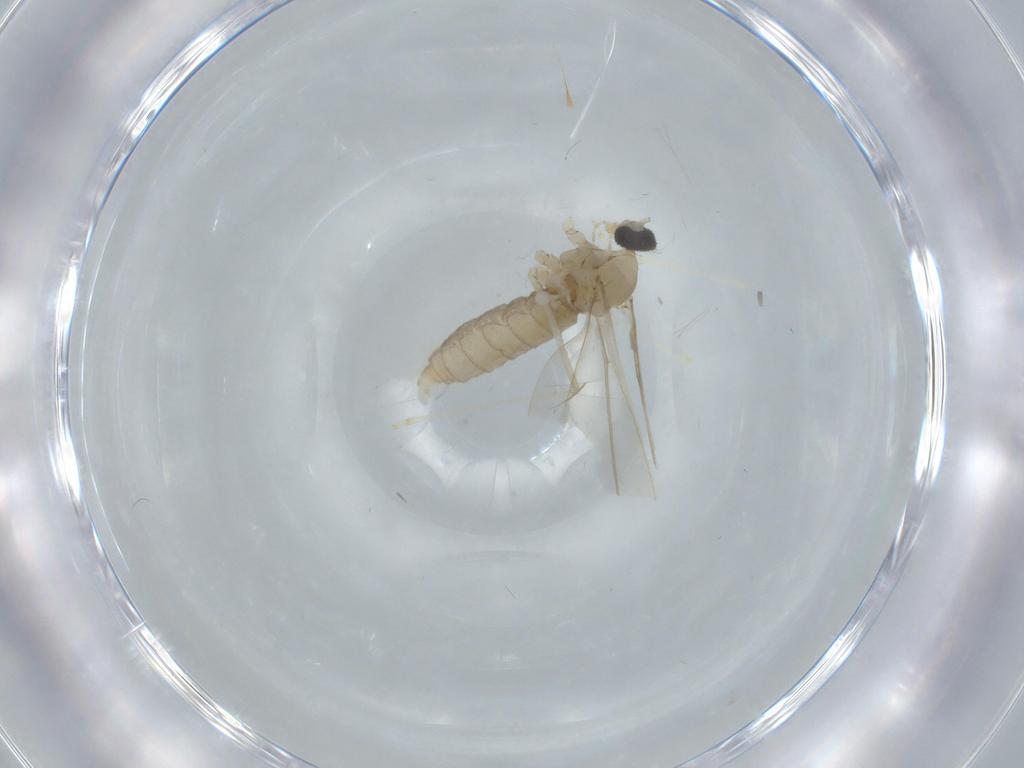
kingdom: Animalia
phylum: Arthropoda
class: Insecta
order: Diptera
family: Cecidomyiidae
